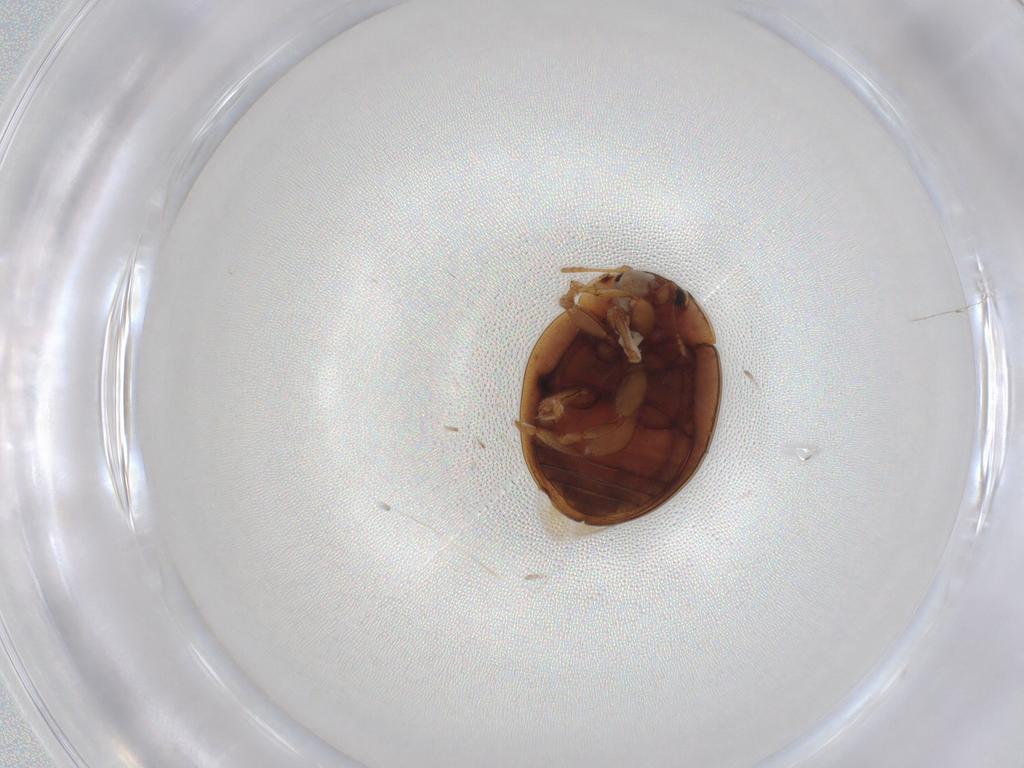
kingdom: Animalia
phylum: Arthropoda
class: Insecta
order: Coleoptera
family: Coccinellidae
